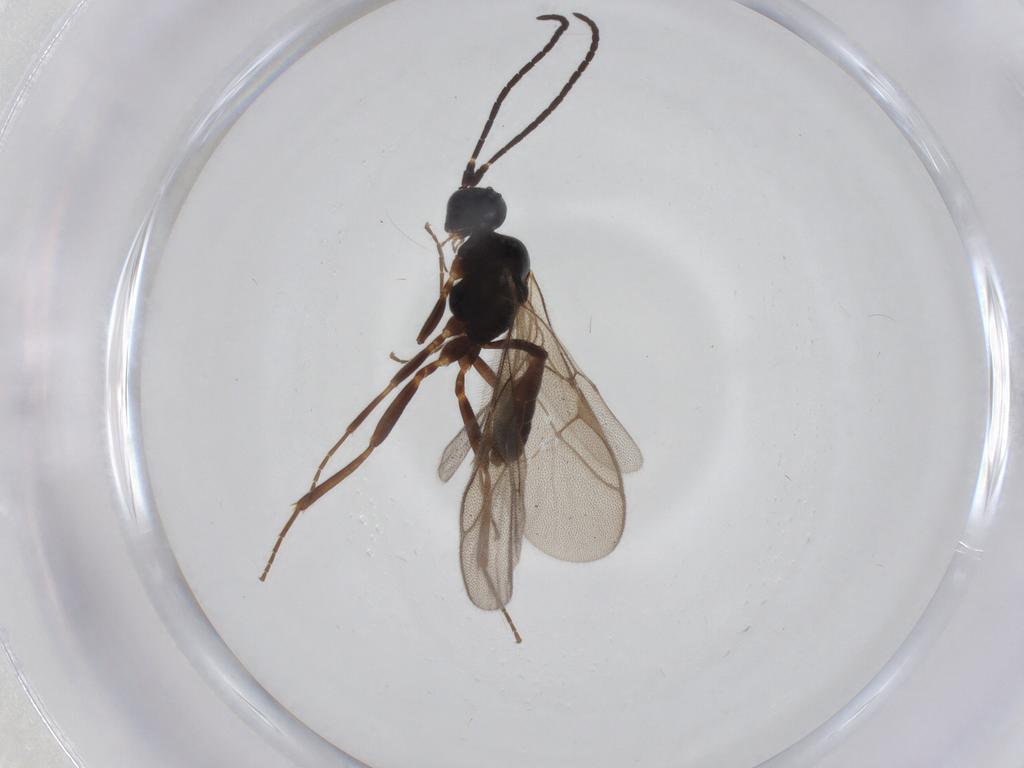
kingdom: Animalia
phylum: Arthropoda
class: Insecta
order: Hymenoptera
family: Ichneumonidae
